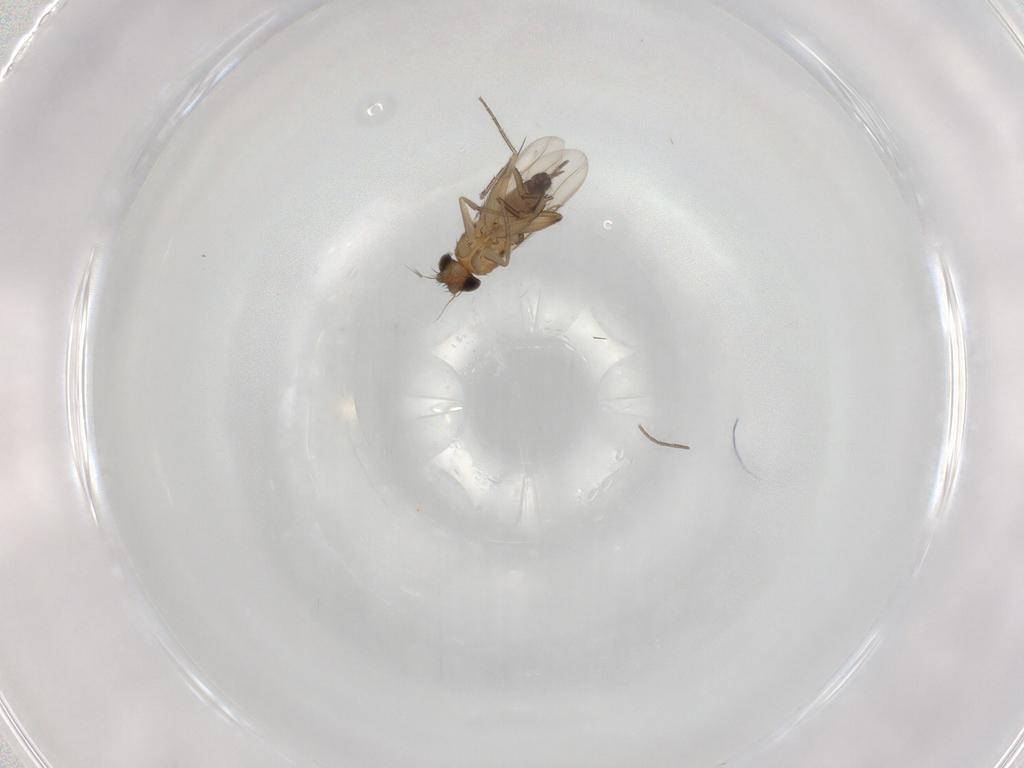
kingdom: Animalia
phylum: Arthropoda
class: Insecta
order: Diptera
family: Phoridae
